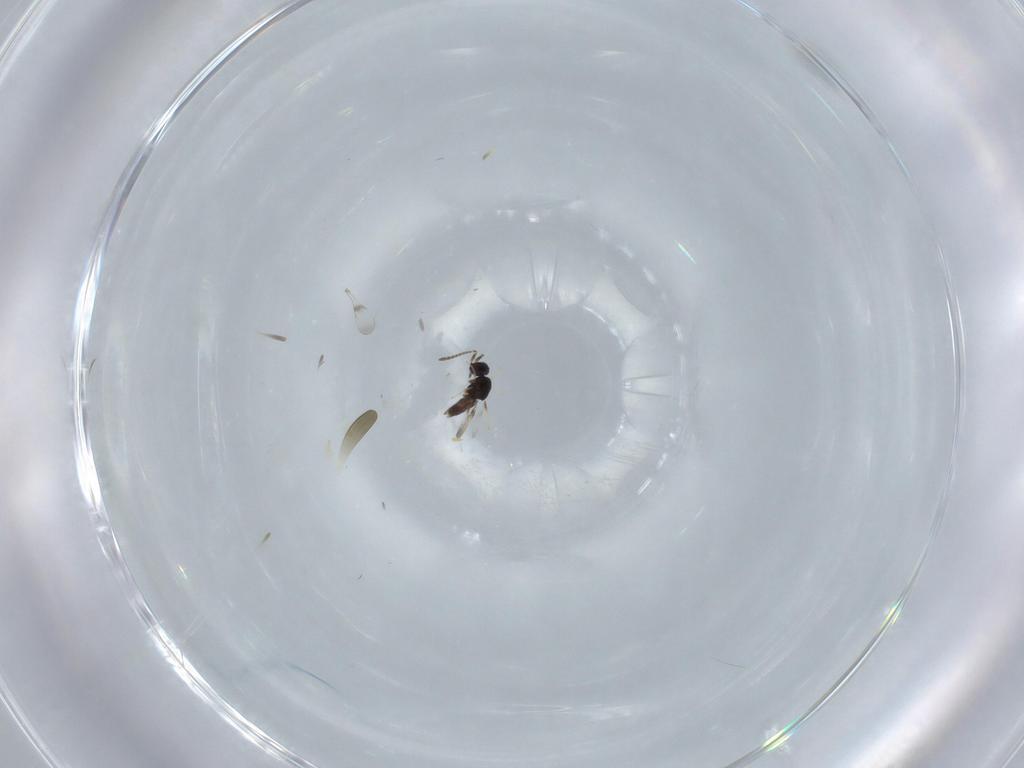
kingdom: Animalia
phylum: Arthropoda
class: Insecta
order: Hymenoptera
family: Ceraphronidae
